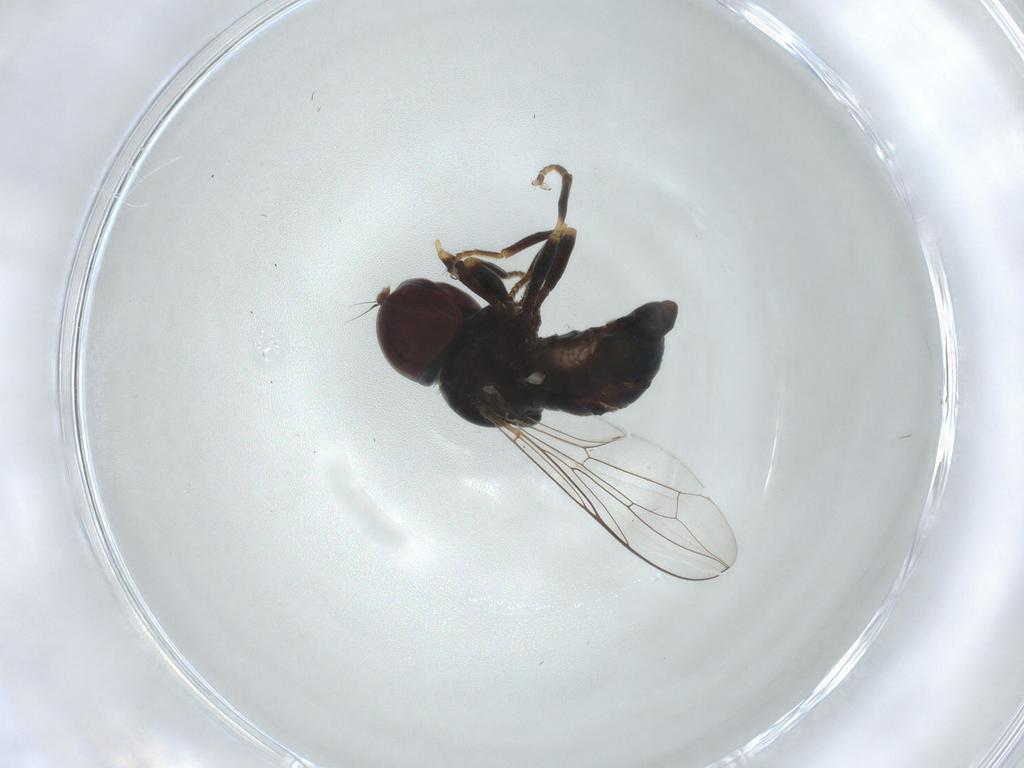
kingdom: Animalia
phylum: Arthropoda
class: Insecta
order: Diptera
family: Pipunculidae
